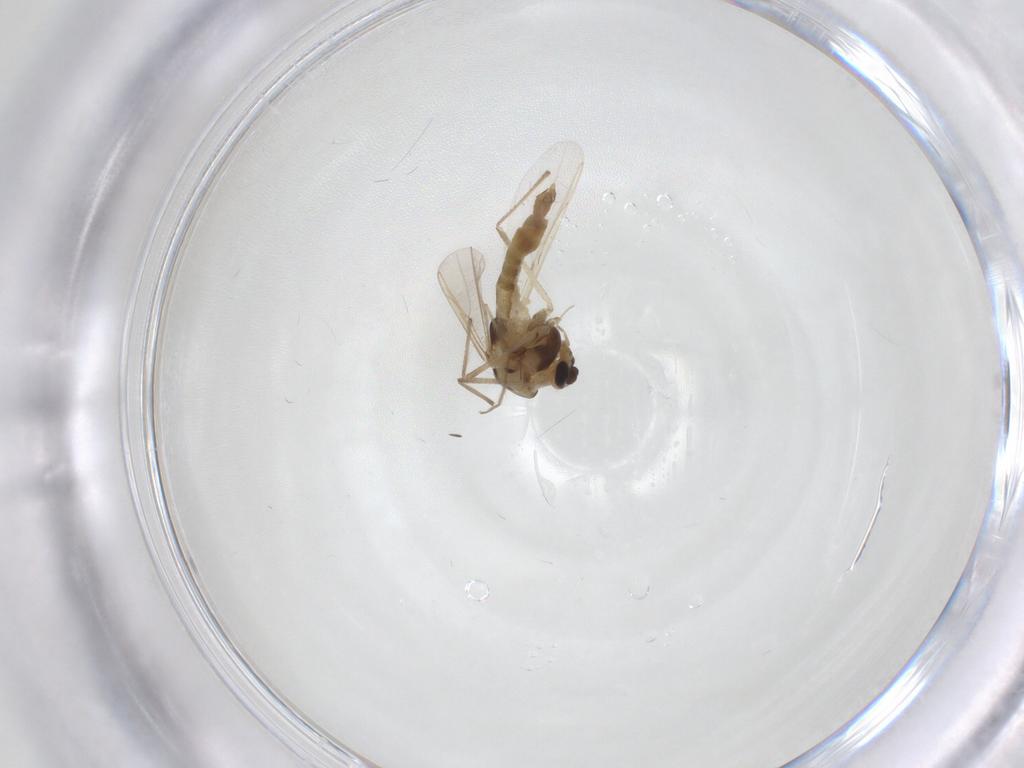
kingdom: Animalia
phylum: Arthropoda
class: Insecta
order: Diptera
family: Chironomidae
